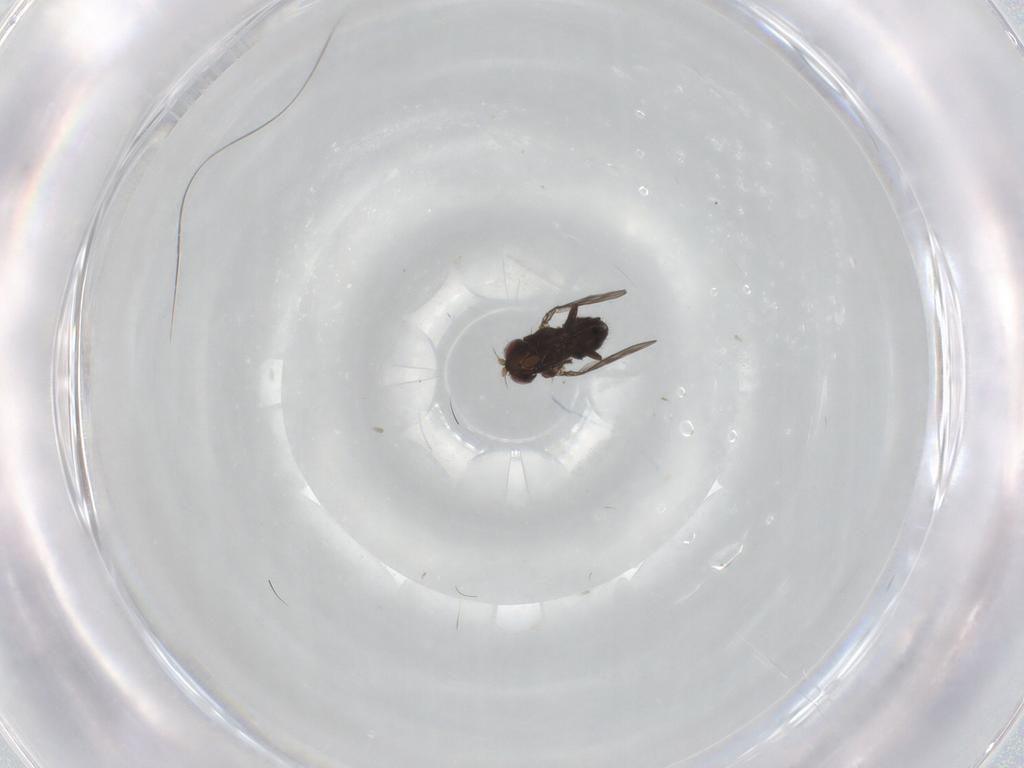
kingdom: Animalia
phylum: Arthropoda
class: Insecta
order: Diptera
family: Ephydridae
